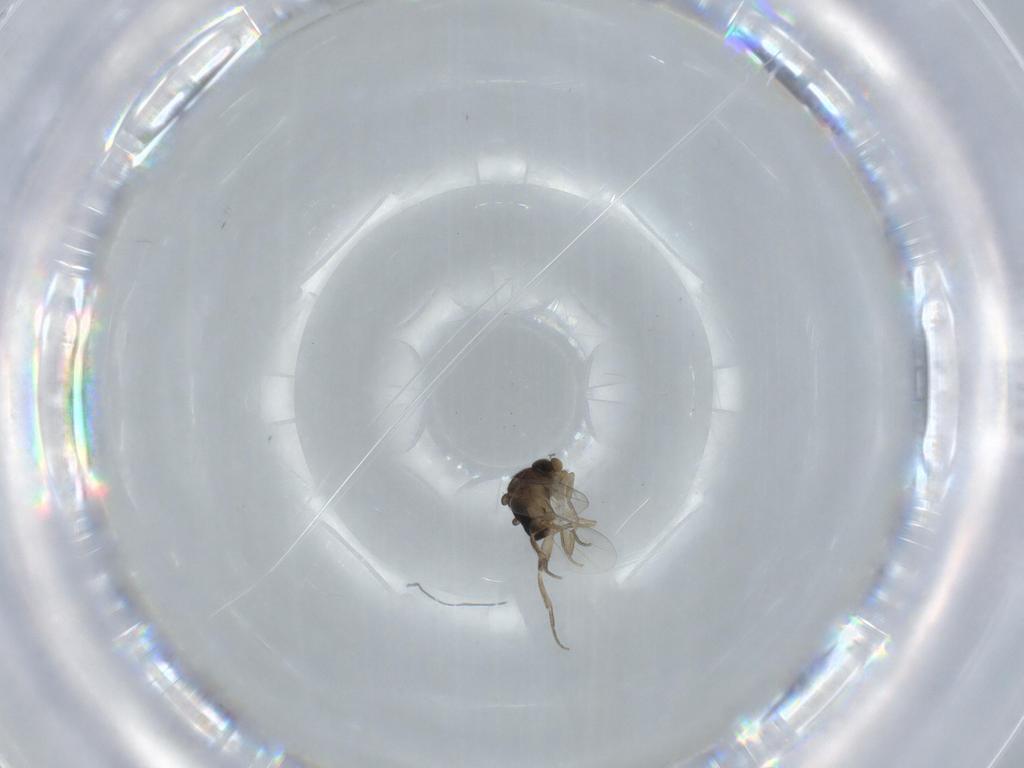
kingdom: Animalia
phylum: Arthropoda
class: Insecta
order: Diptera
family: Phoridae
